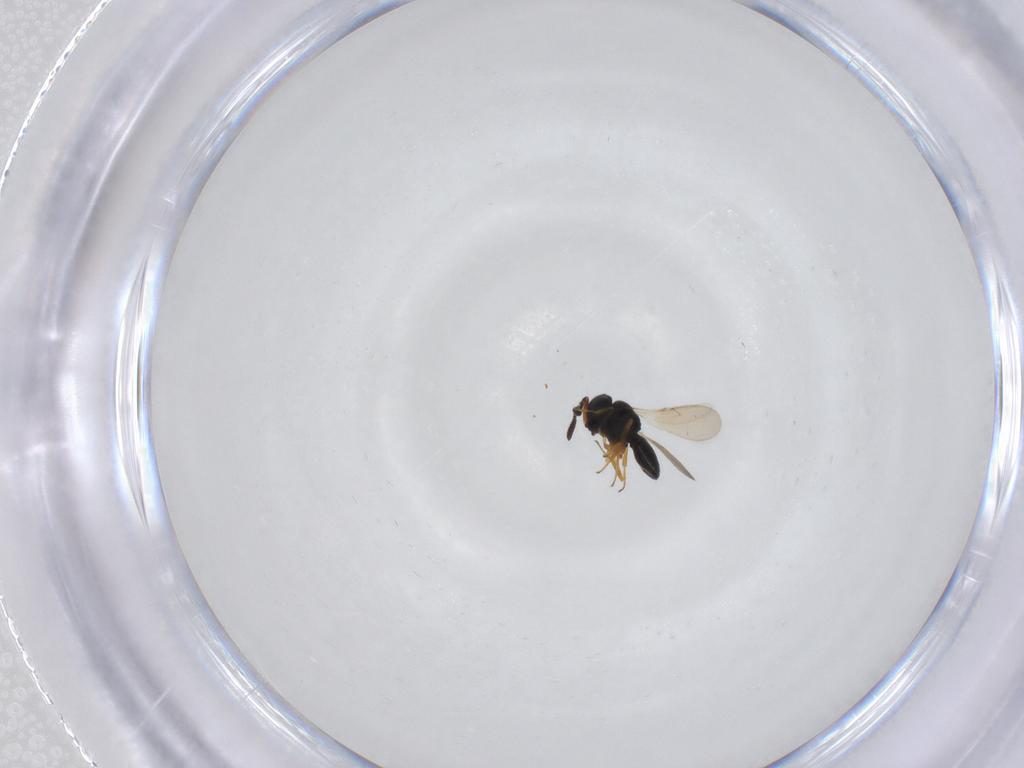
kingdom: Animalia
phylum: Arthropoda
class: Insecta
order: Hymenoptera
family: Scelionidae
